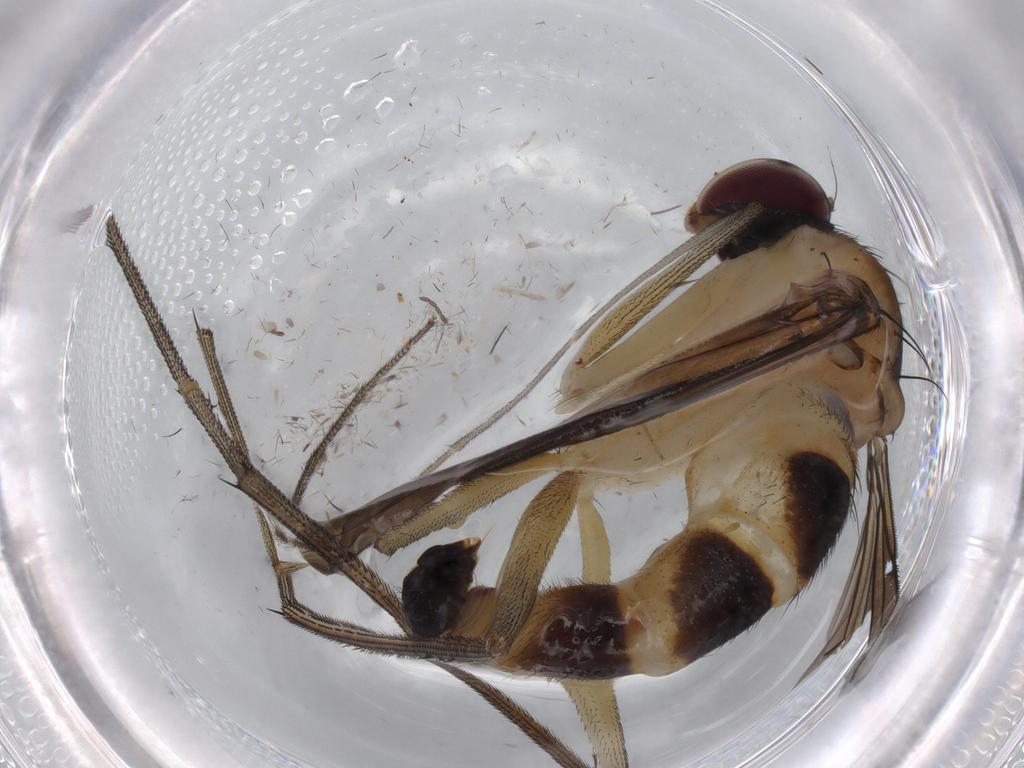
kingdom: Animalia
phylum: Arthropoda
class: Insecta
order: Diptera
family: Dolichopodidae
